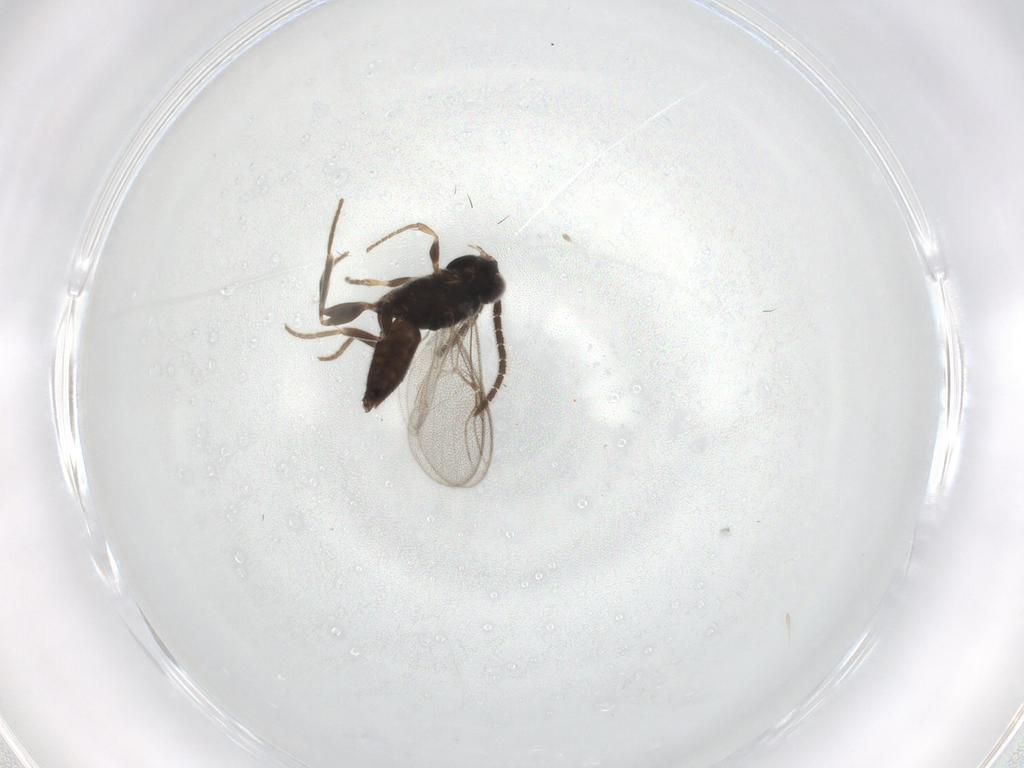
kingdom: Animalia
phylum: Arthropoda
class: Insecta
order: Hymenoptera
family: Dryinidae
